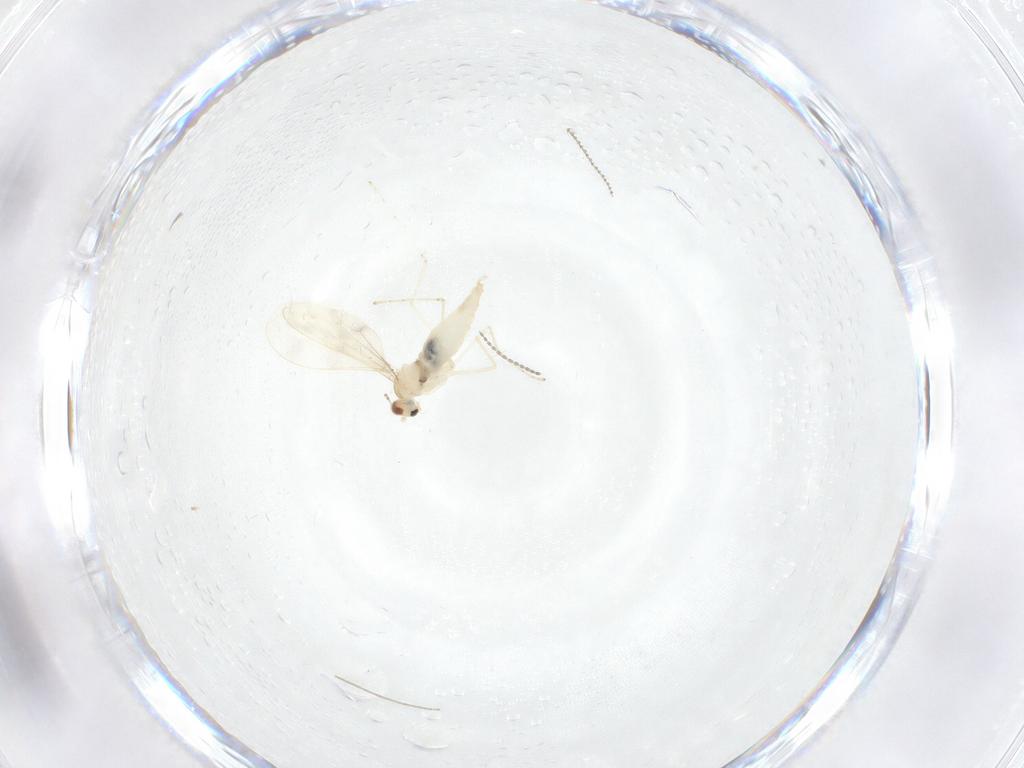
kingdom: Animalia
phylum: Arthropoda
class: Insecta
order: Diptera
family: Cecidomyiidae
